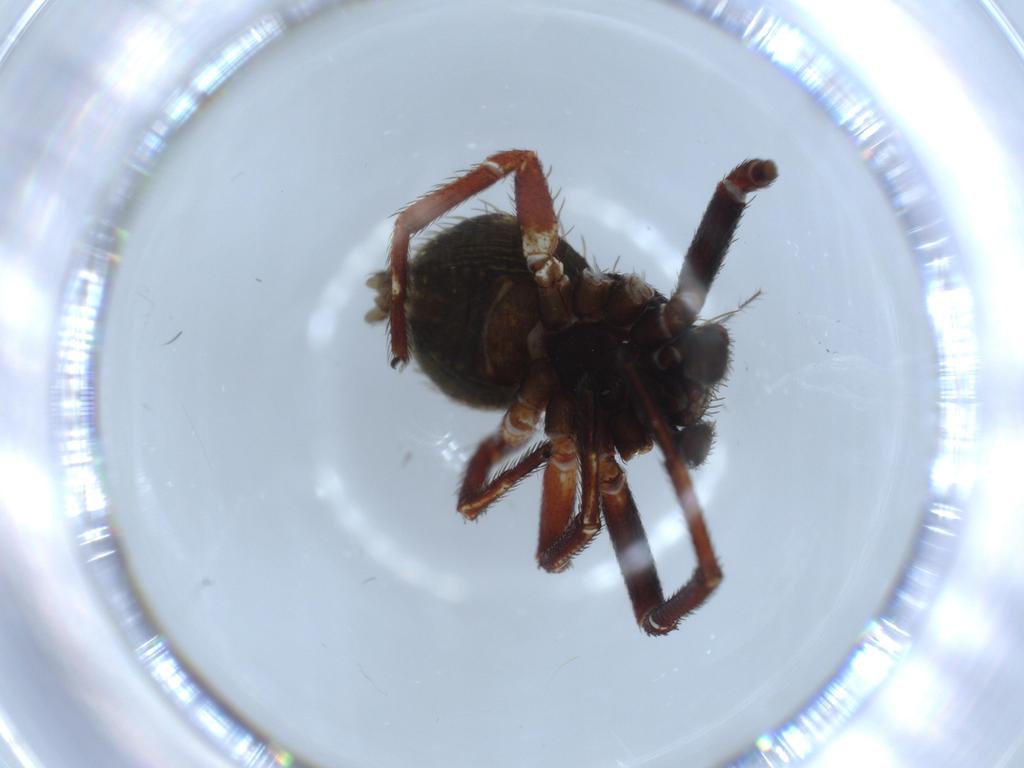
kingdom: Animalia
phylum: Arthropoda
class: Arachnida
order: Araneae
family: Thomisidae
